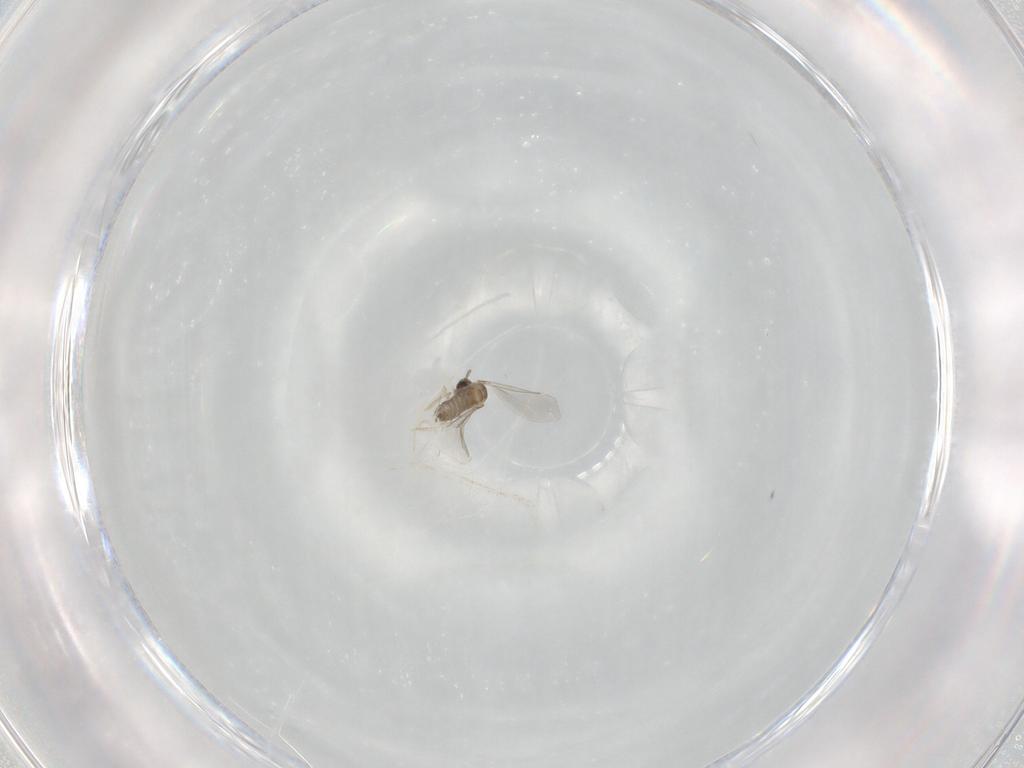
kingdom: Animalia
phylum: Arthropoda
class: Insecta
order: Diptera
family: Cecidomyiidae
